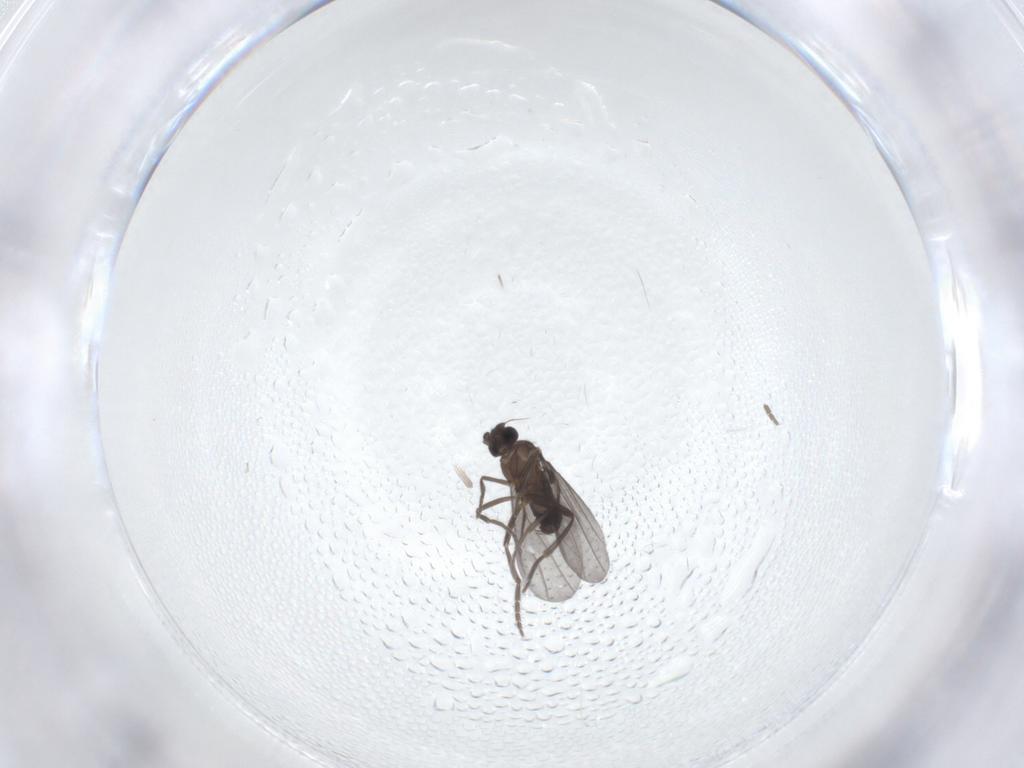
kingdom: Animalia
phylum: Arthropoda
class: Insecta
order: Diptera
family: Phoridae
